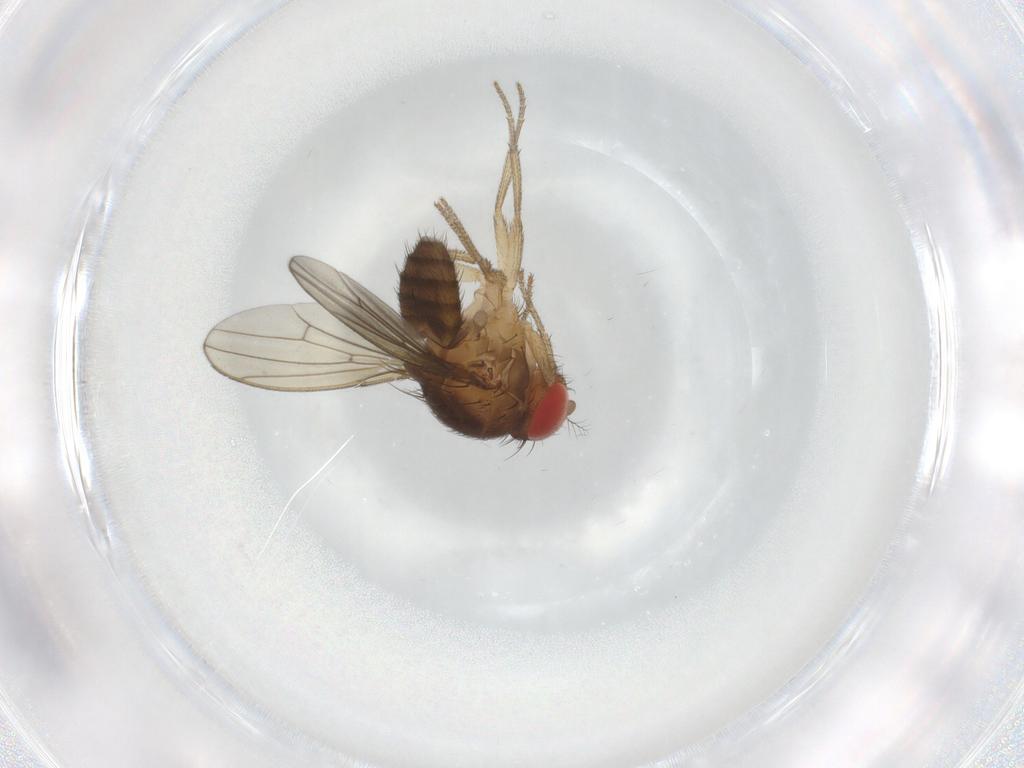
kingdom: Animalia
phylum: Arthropoda
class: Insecta
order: Diptera
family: Drosophilidae
